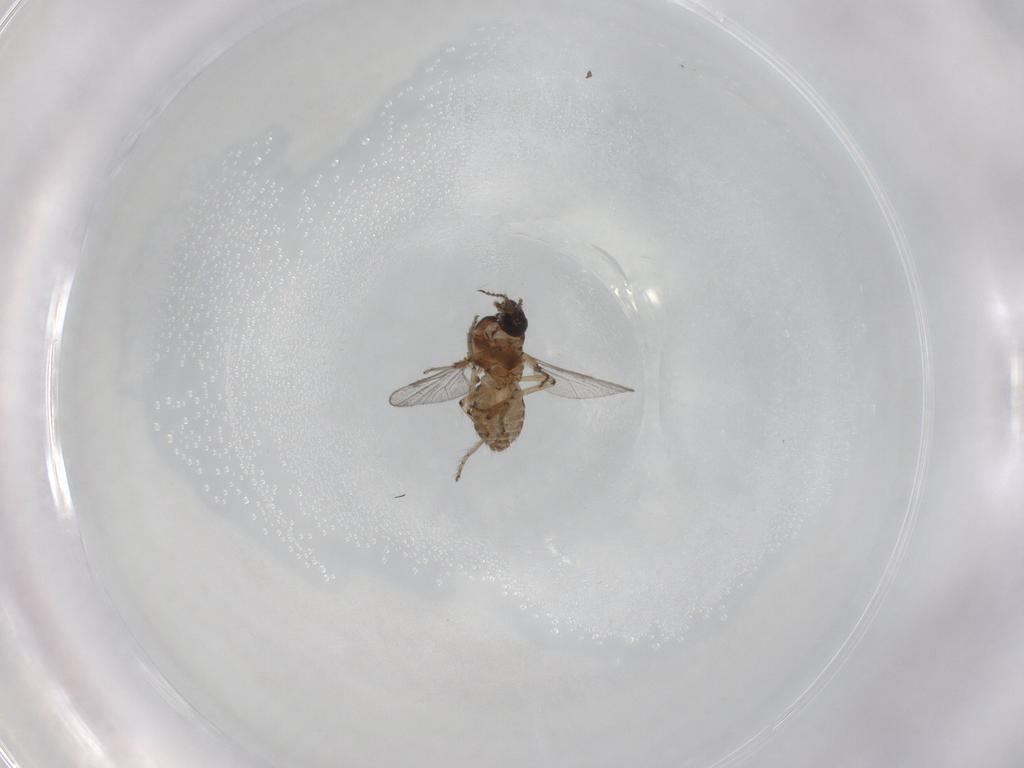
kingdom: Animalia
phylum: Arthropoda
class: Insecta
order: Diptera
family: Ceratopogonidae
